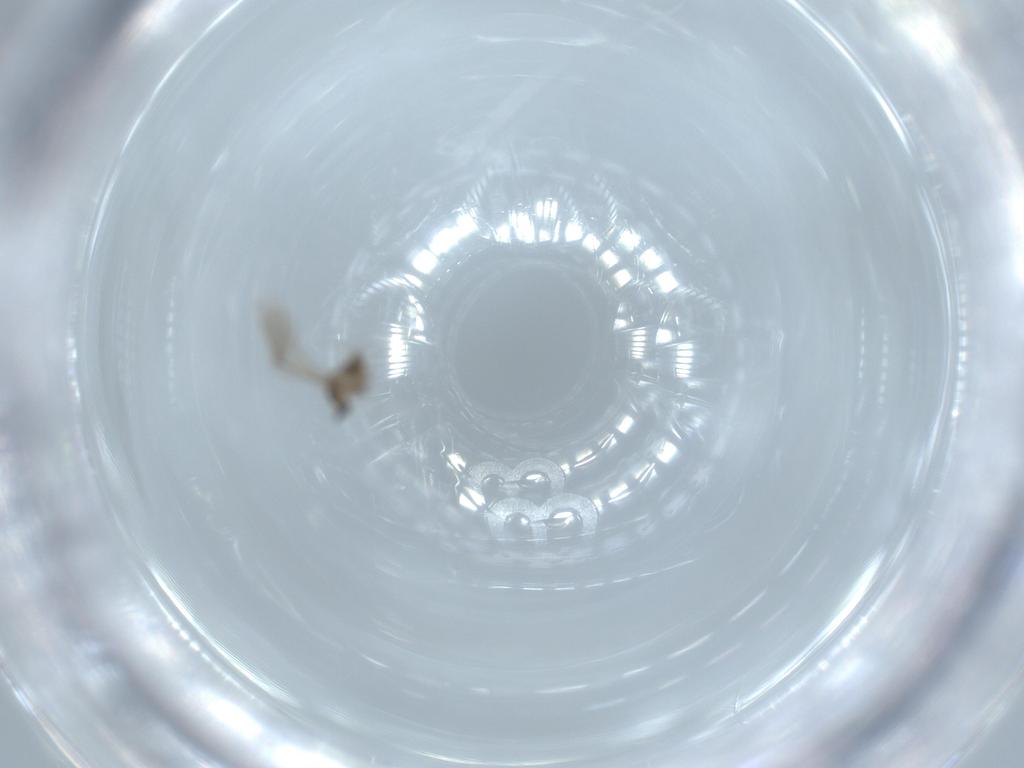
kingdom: Animalia
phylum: Arthropoda
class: Insecta
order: Diptera
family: Cecidomyiidae
